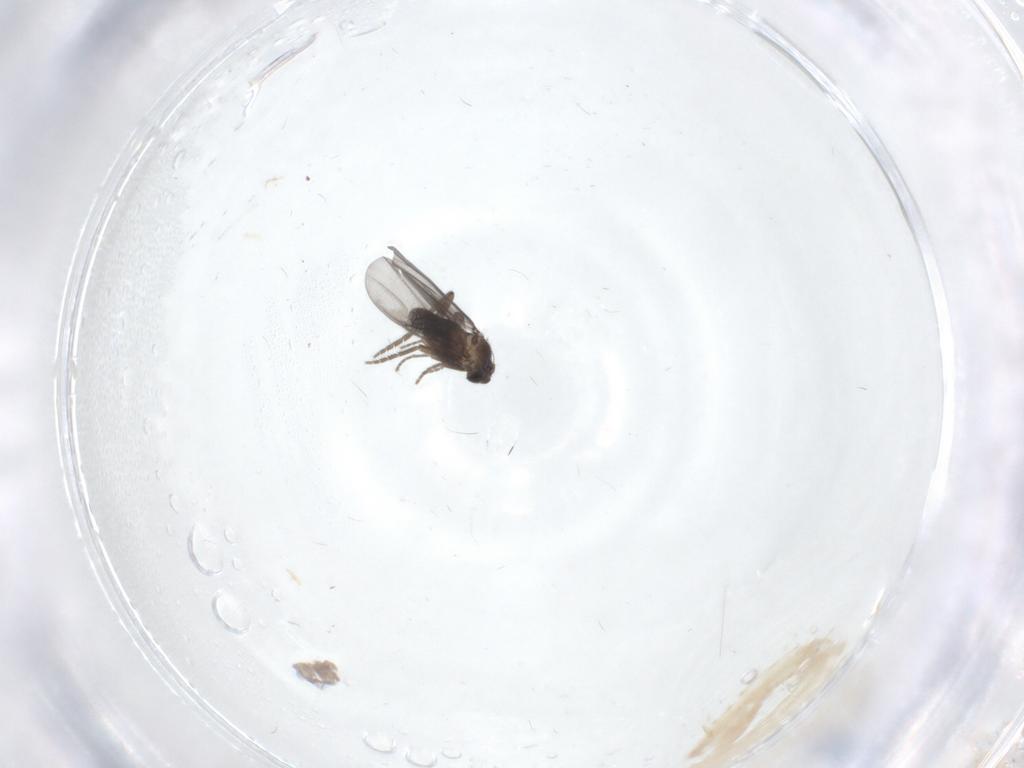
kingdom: Animalia
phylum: Arthropoda
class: Insecta
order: Diptera
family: Cecidomyiidae
